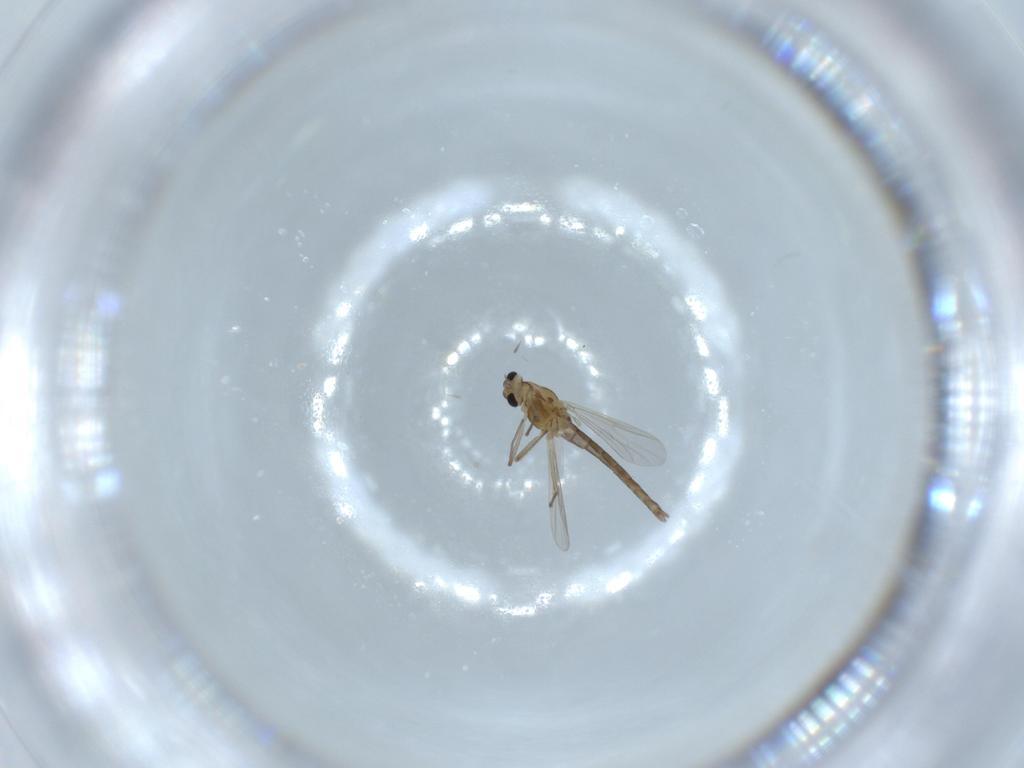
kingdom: Animalia
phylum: Arthropoda
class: Insecta
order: Diptera
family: Chironomidae
